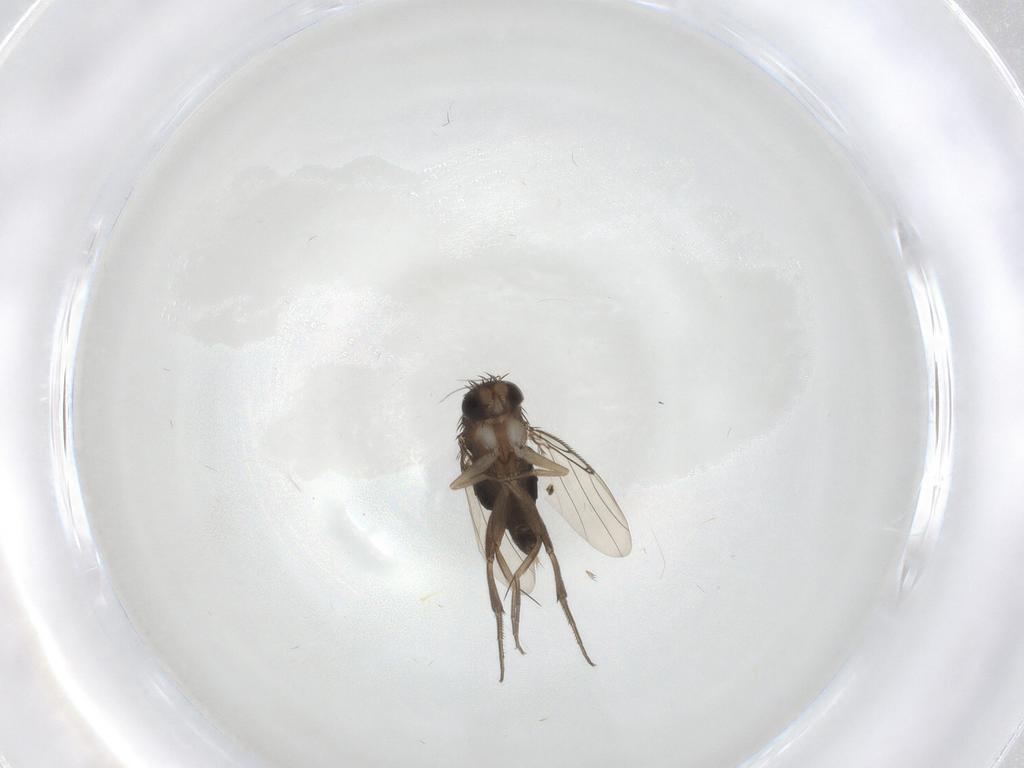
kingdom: Animalia
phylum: Arthropoda
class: Insecta
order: Diptera
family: Phoridae
